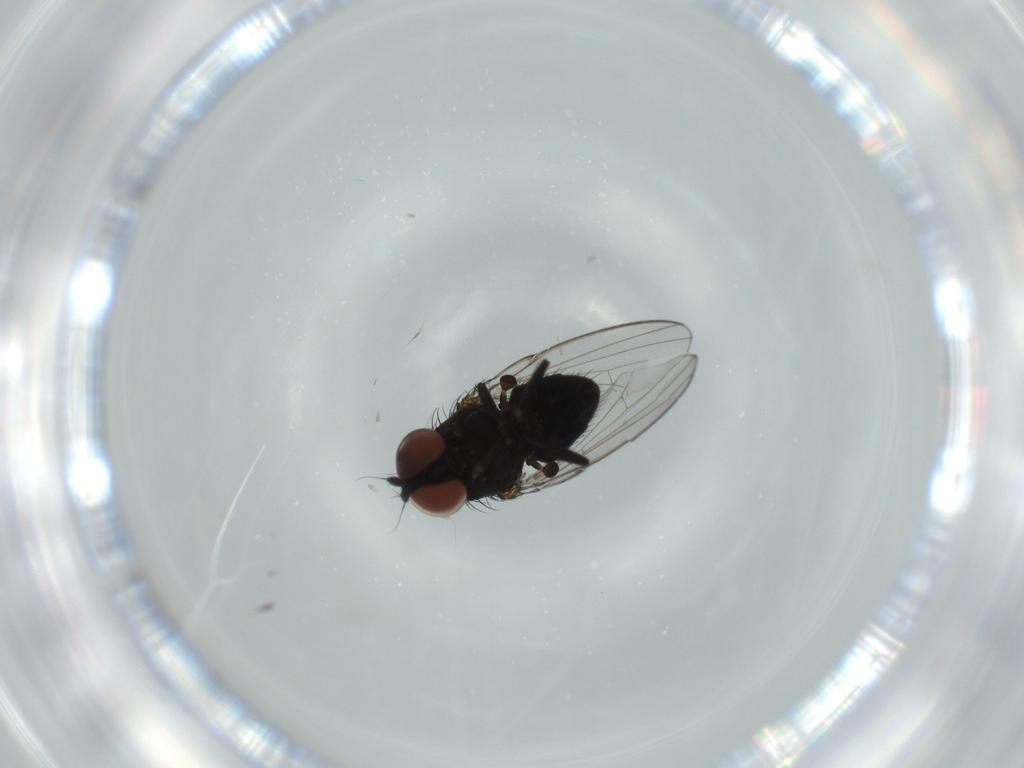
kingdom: Animalia
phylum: Arthropoda
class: Insecta
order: Diptera
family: Milichiidae
